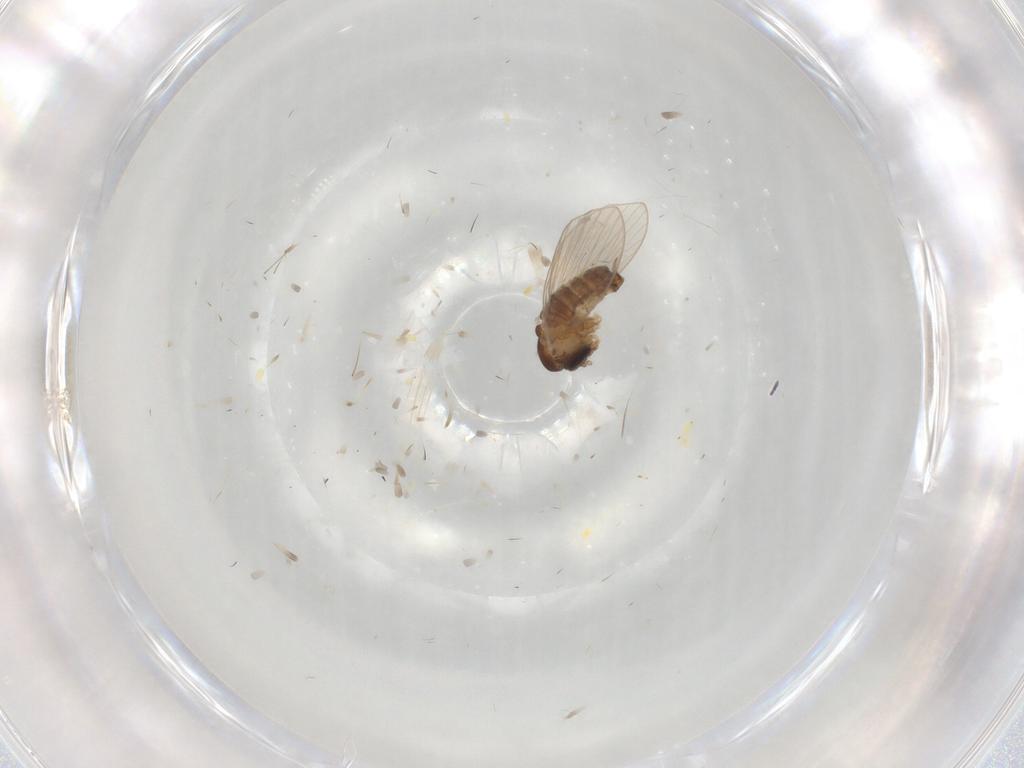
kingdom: Animalia
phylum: Arthropoda
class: Insecta
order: Diptera
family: Psychodidae
